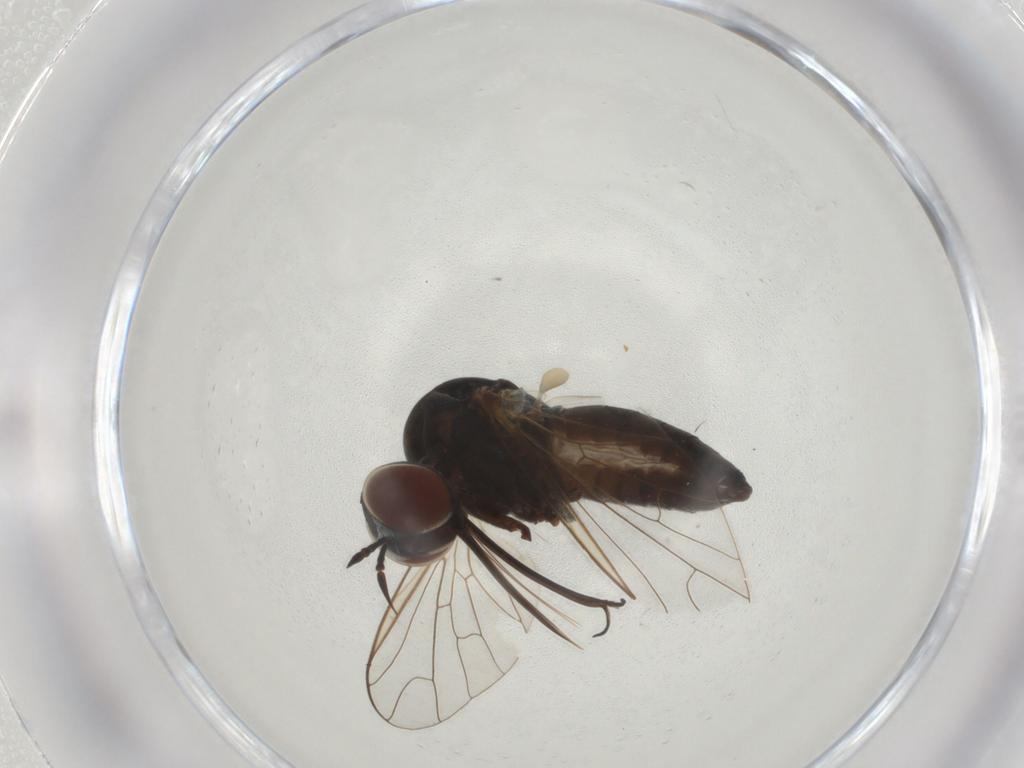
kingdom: Animalia
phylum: Arthropoda
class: Insecta
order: Diptera
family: Bombyliidae
